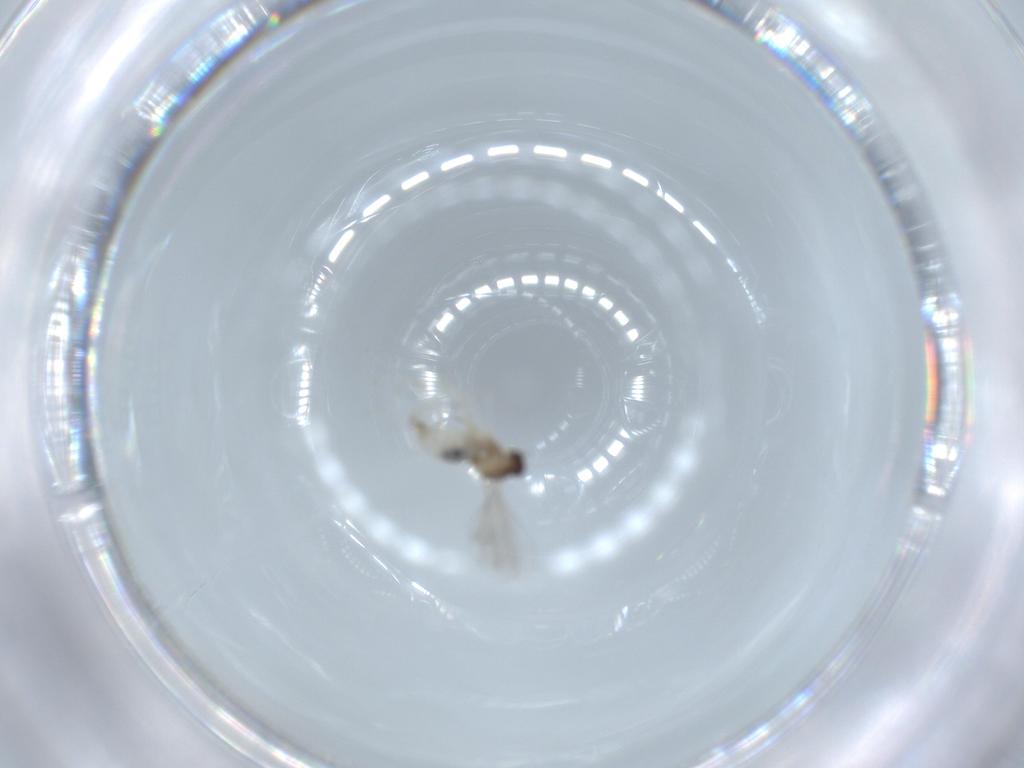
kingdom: Animalia
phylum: Arthropoda
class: Insecta
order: Diptera
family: Cecidomyiidae
